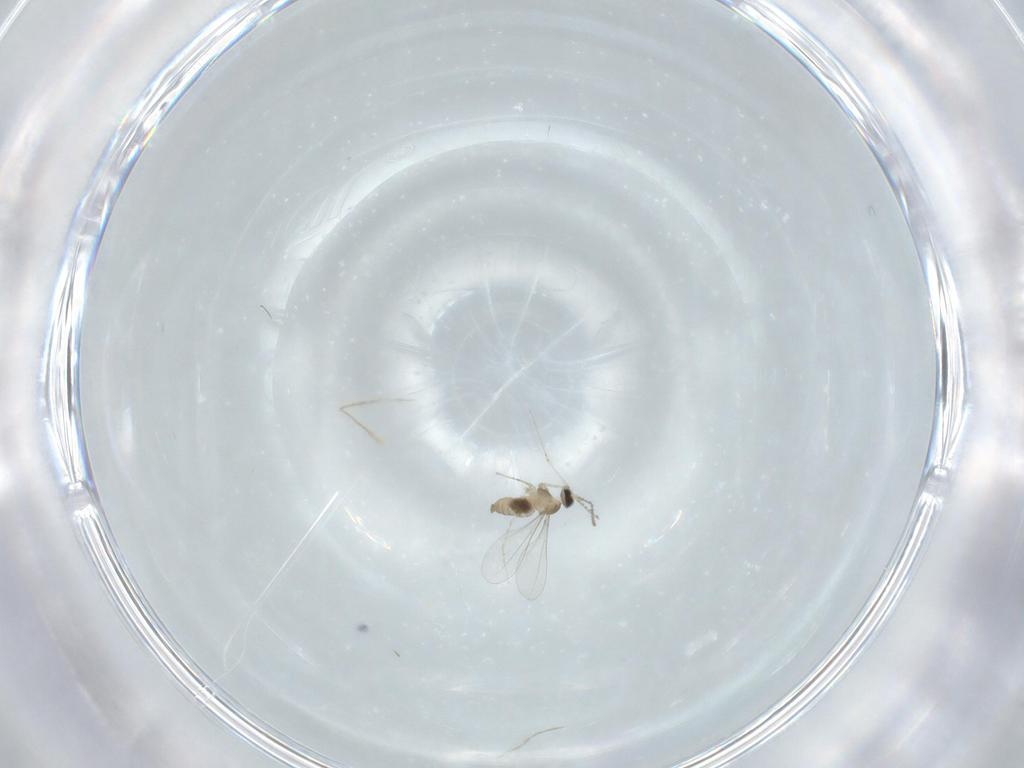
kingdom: Animalia
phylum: Arthropoda
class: Insecta
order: Diptera
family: Cecidomyiidae
